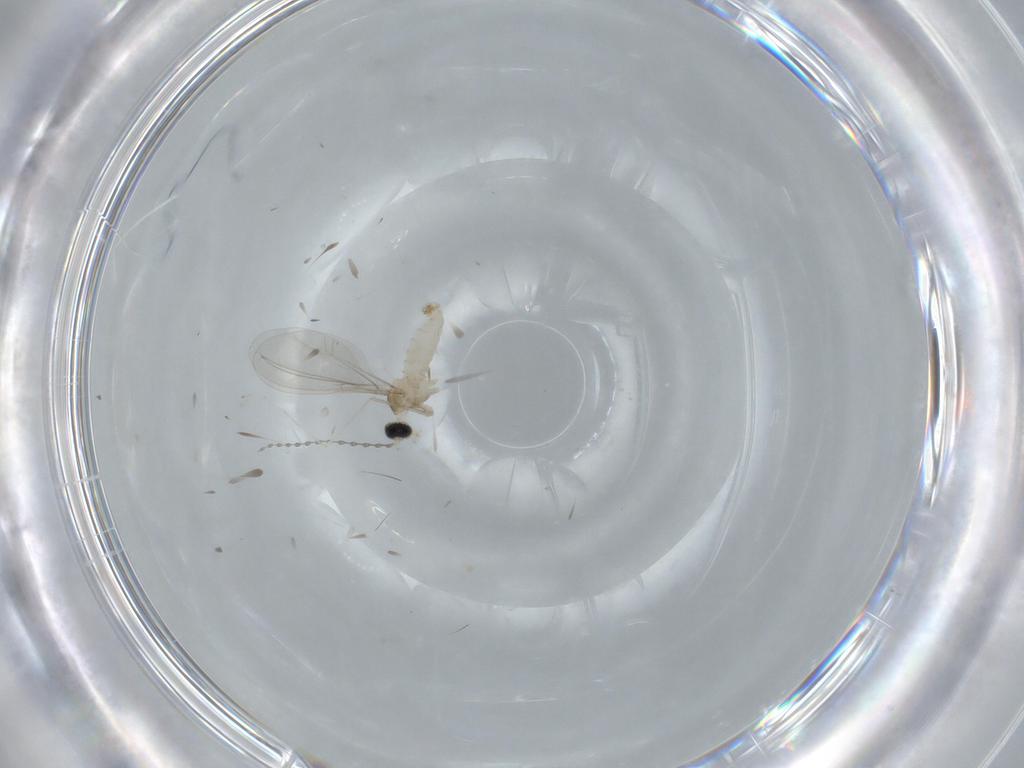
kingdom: Animalia
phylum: Arthropoda
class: Insecta
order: Diptera
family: Cecidomyiidae
